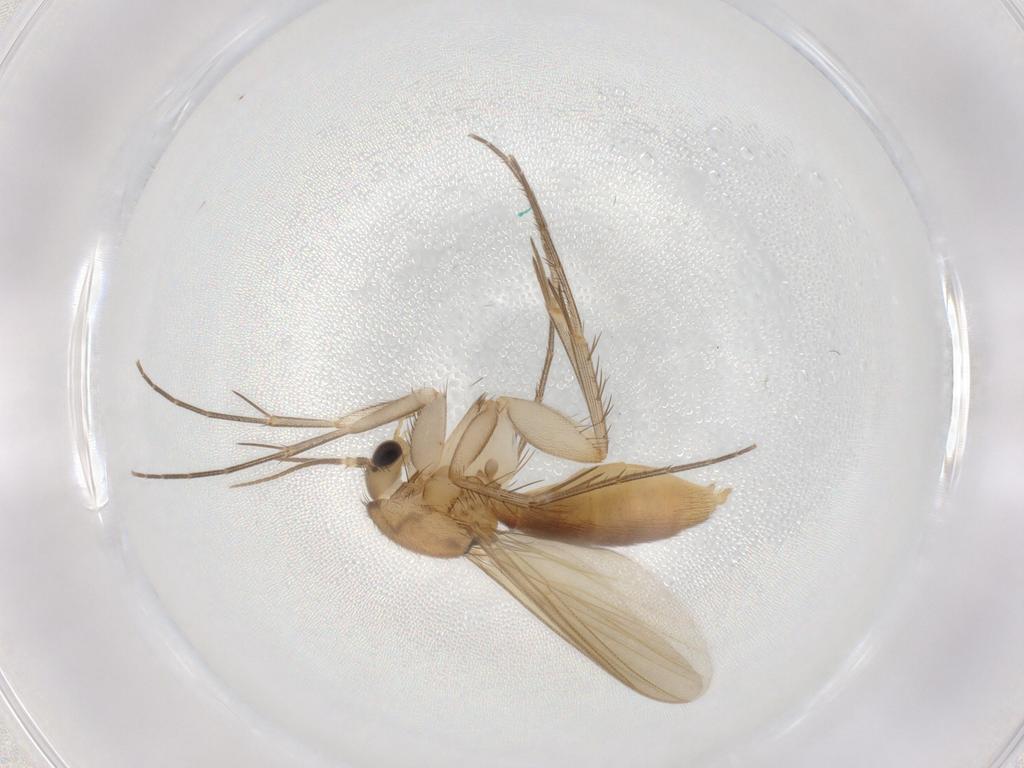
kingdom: Animalia
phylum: Arthropoda
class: Insecta
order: Diptera
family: Mycetophilidae
